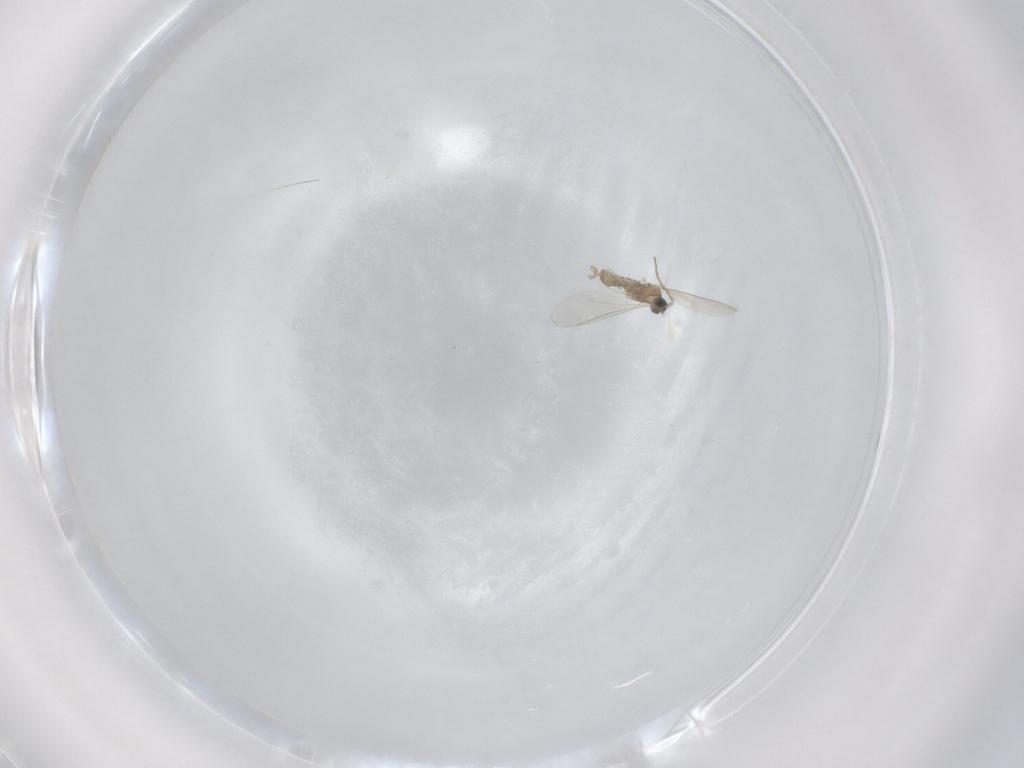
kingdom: Animalia
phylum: Arthropoda
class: Insecta
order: Diptera
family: Cecidomyiidae
